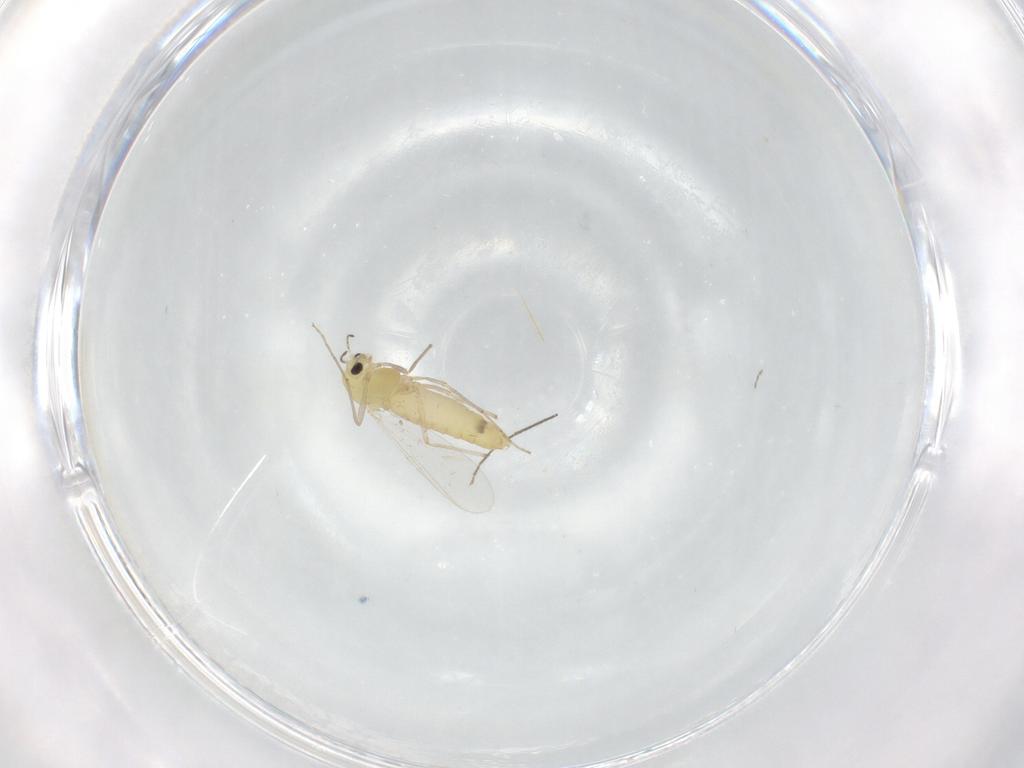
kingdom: Animalia
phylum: Arthropoda
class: Insecta
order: Diptera
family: Chironomidae
